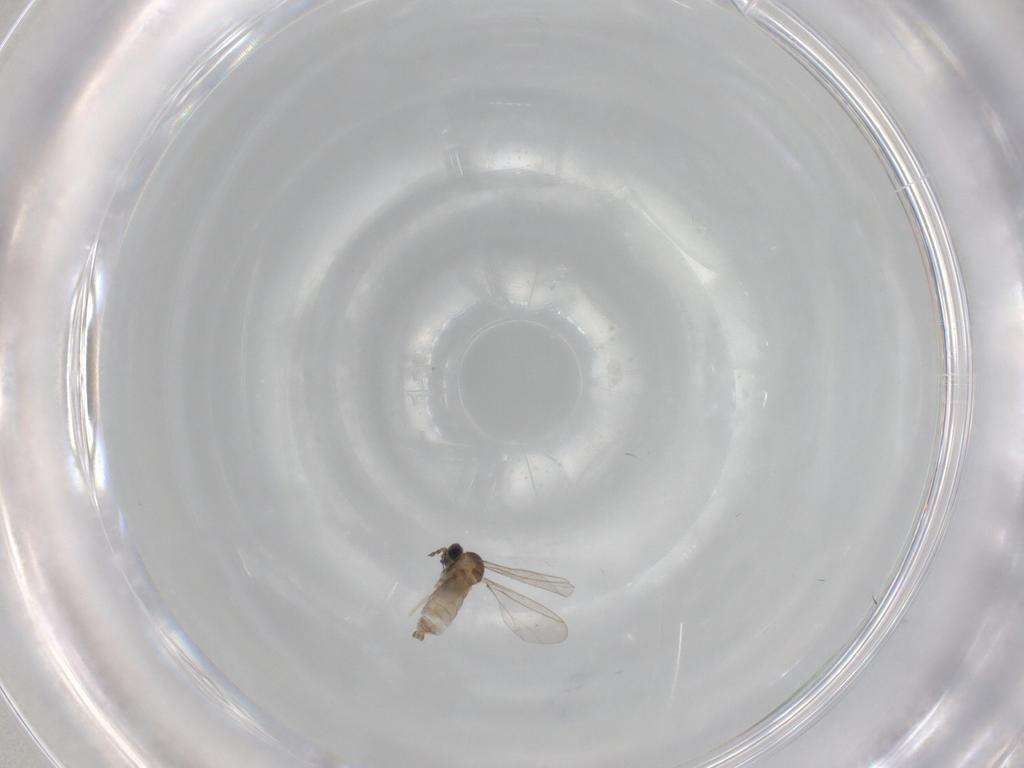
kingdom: Animalia
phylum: Arthropoda
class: Insecta
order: Diptera
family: Cecidomyiidae
